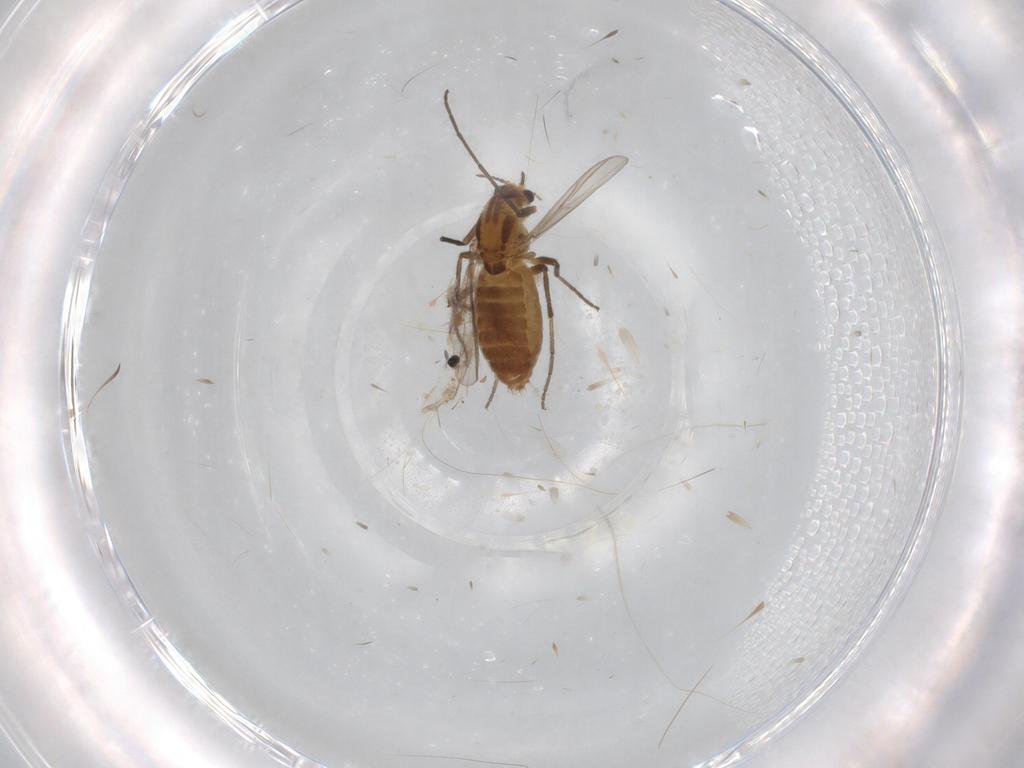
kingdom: Animalia
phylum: Arthropoda
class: Insecta
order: Diptera
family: Chironomidae
